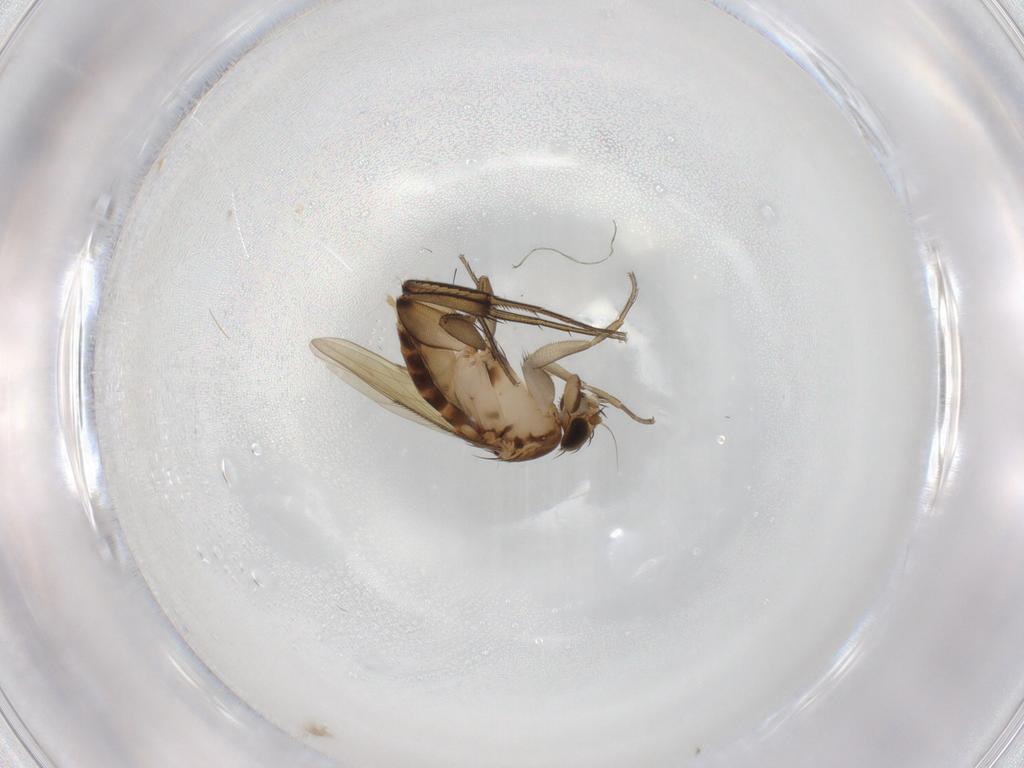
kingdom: Animalia
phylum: Arthropoda
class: Insecta
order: Diptera
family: Phoridae
